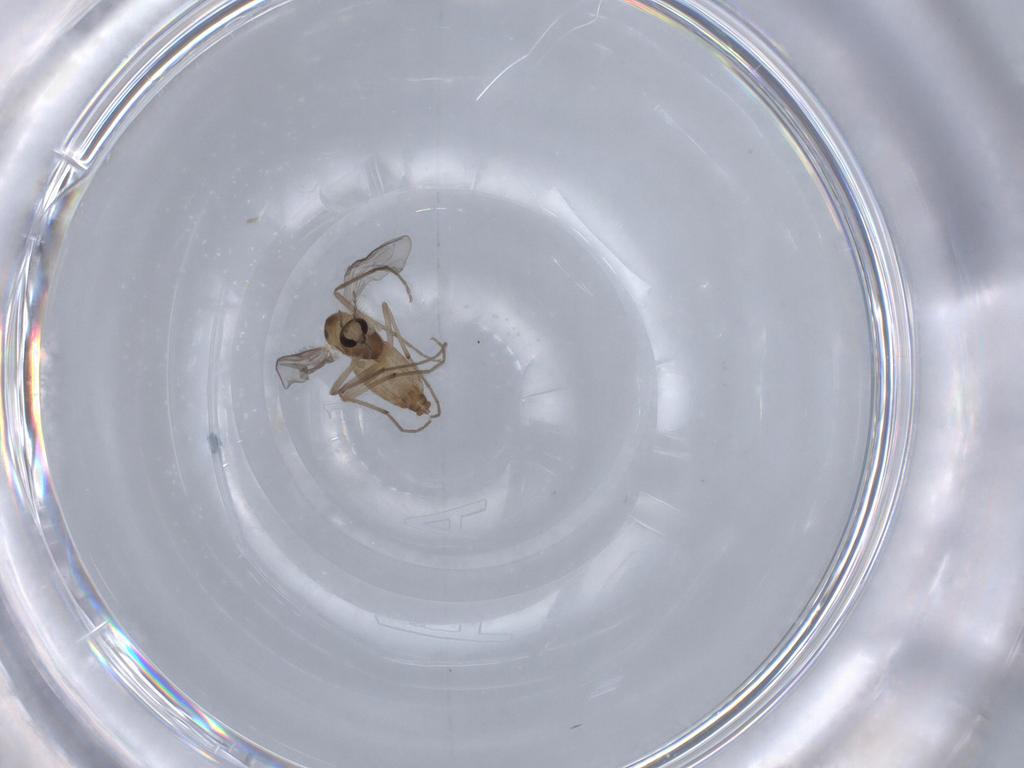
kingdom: Animalia
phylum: Arthropoda
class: Insecta
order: Diptera
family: Chironomidae
